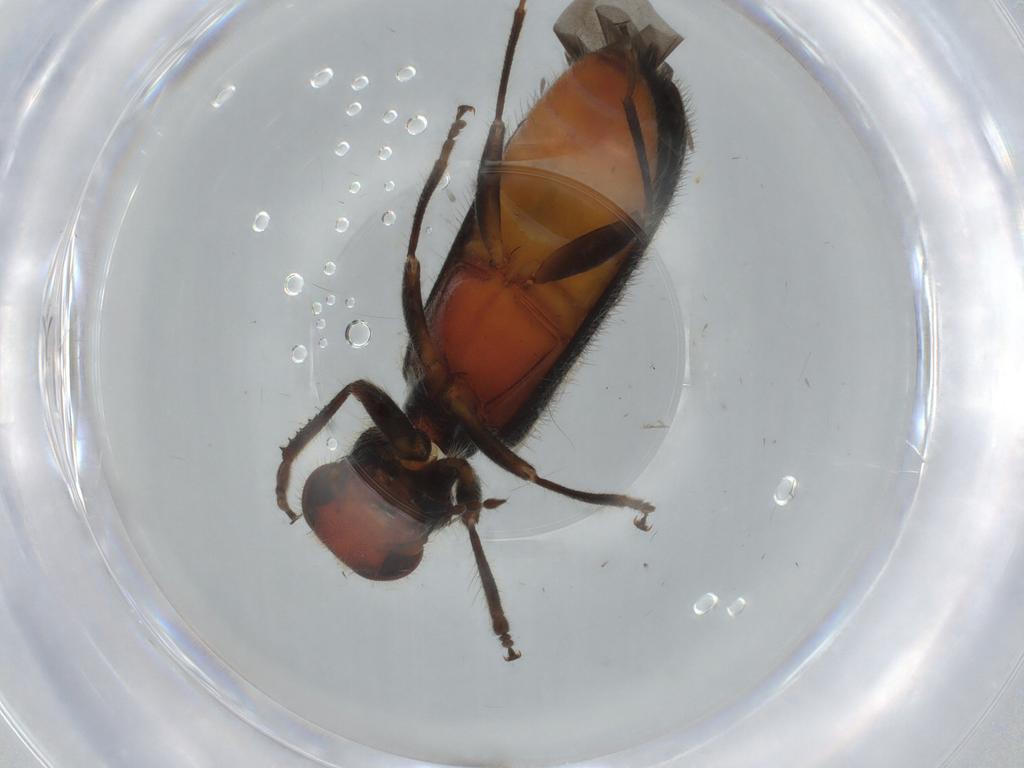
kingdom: Animalia
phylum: Arthropoda
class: Insecta
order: Coleoptera
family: Cleridae
